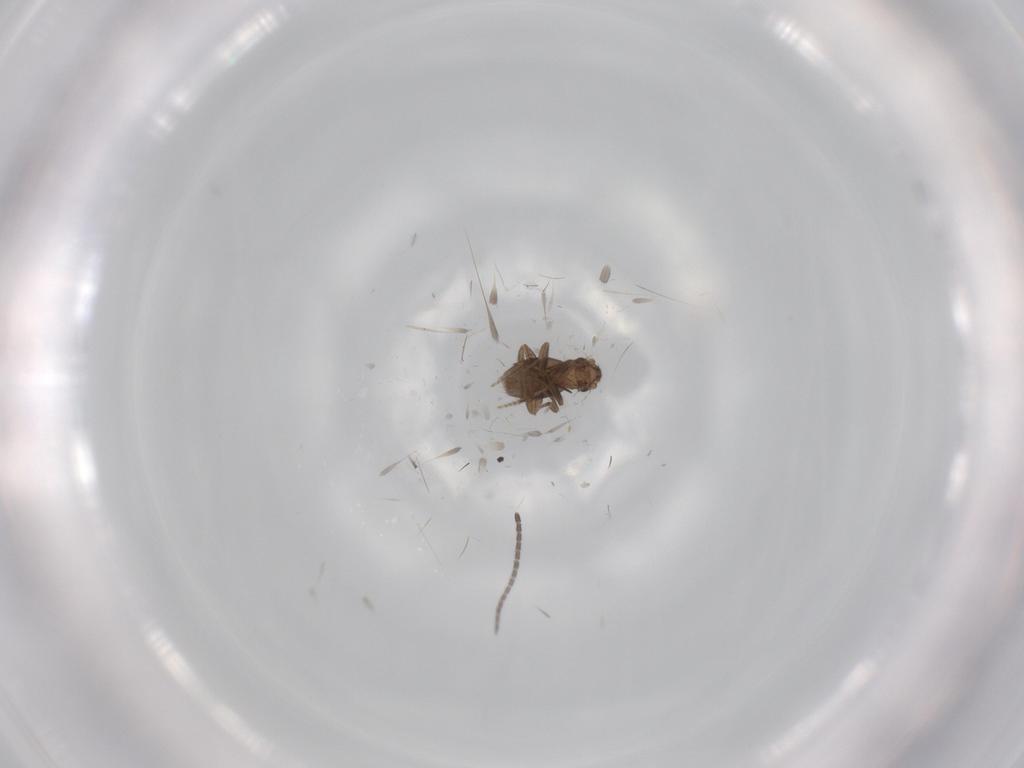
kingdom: Animalia
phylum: Arthropoda
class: Insecta
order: Diptera
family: Sciaridae
